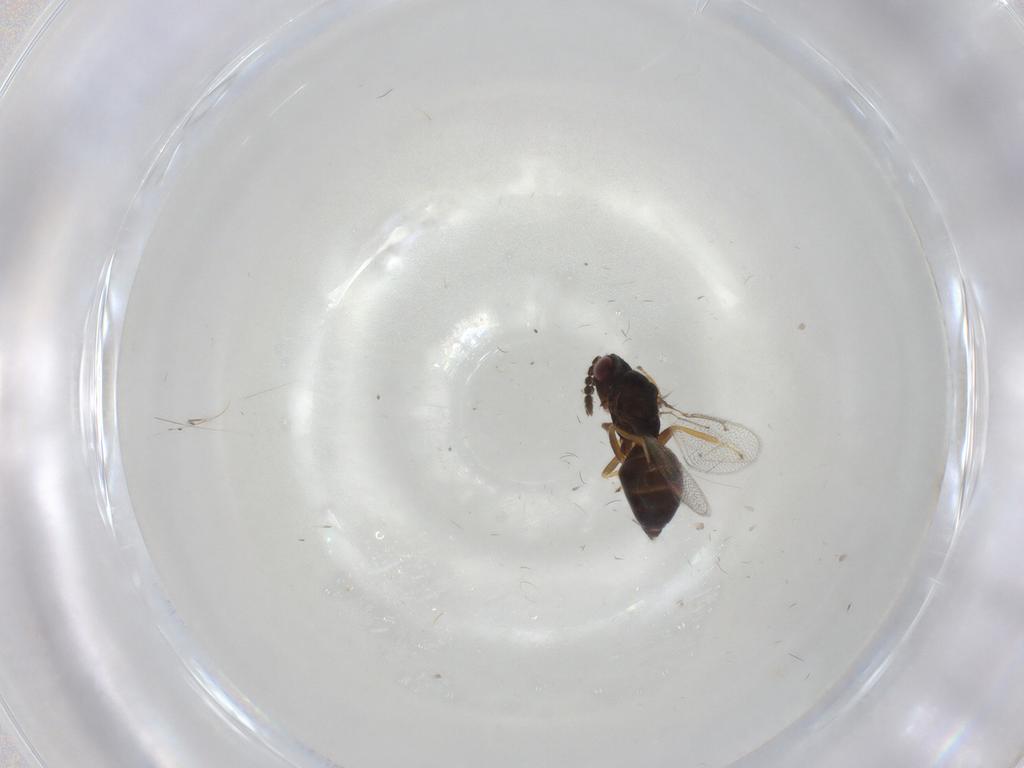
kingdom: Animalia
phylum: Arthropoda
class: Insecta
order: Hymenoptera
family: Eulophidae
